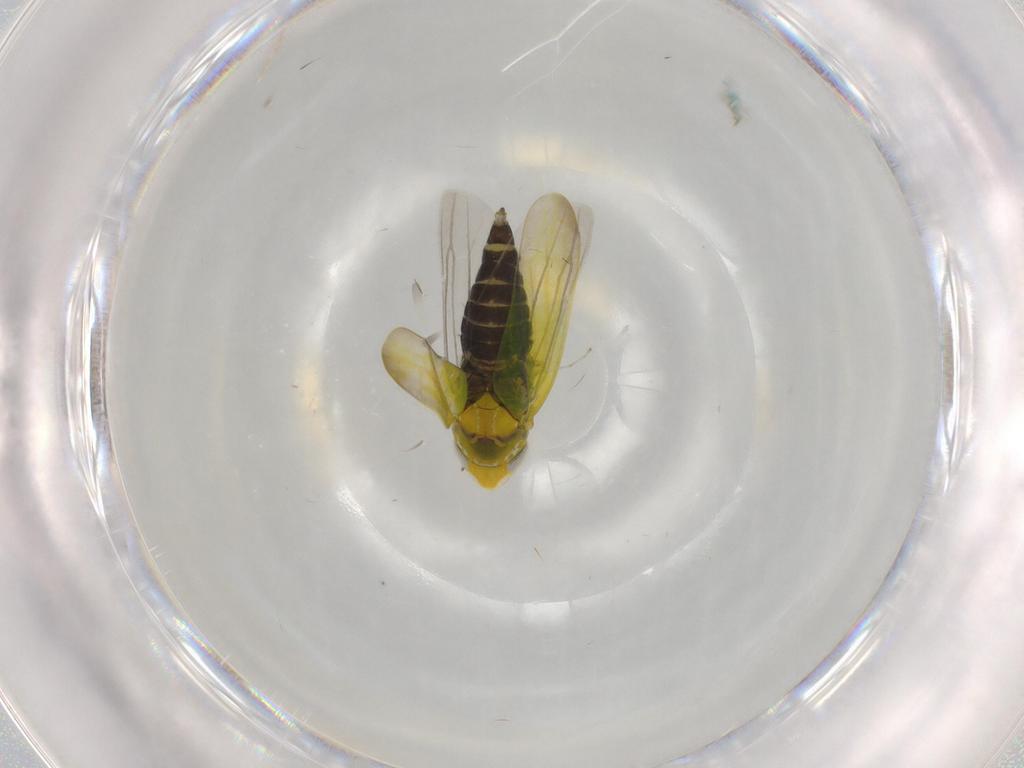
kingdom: Animalia
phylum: Arthropoda
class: Insecta
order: Hemiptera
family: Cicadellidae
